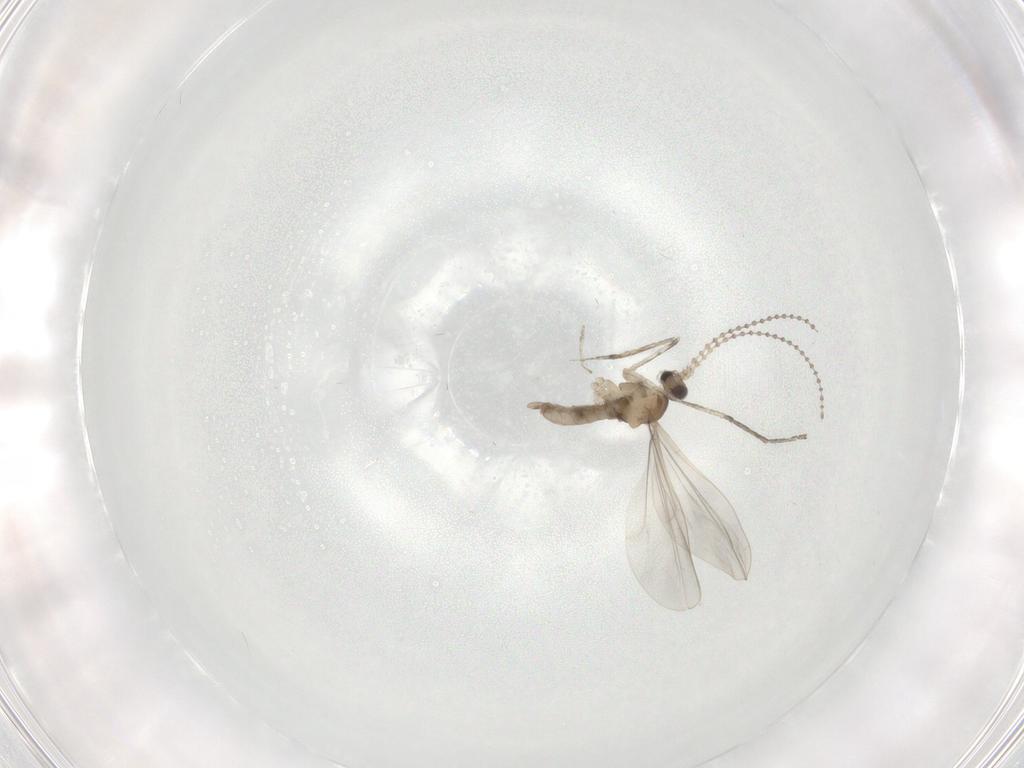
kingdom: Animalia
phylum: Arthropoda
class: Insecta
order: Diptera
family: Cecidomyiidae
